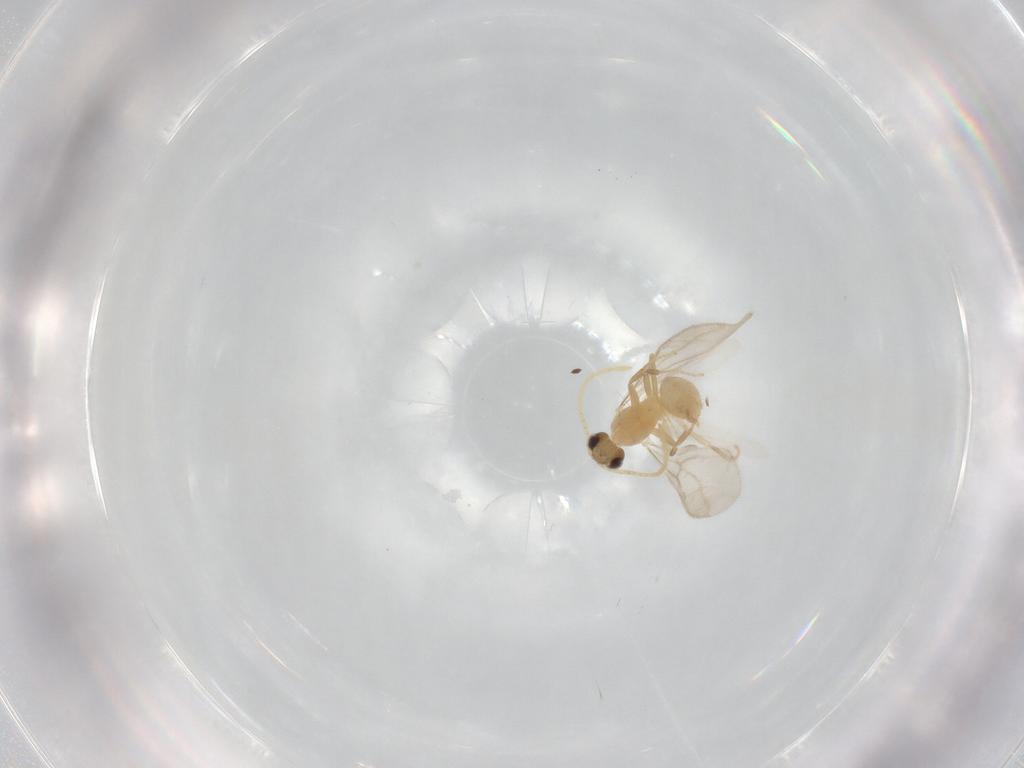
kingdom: Animalia
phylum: Arthropoda
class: Insecta
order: Hymenoptera
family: Formicidae
